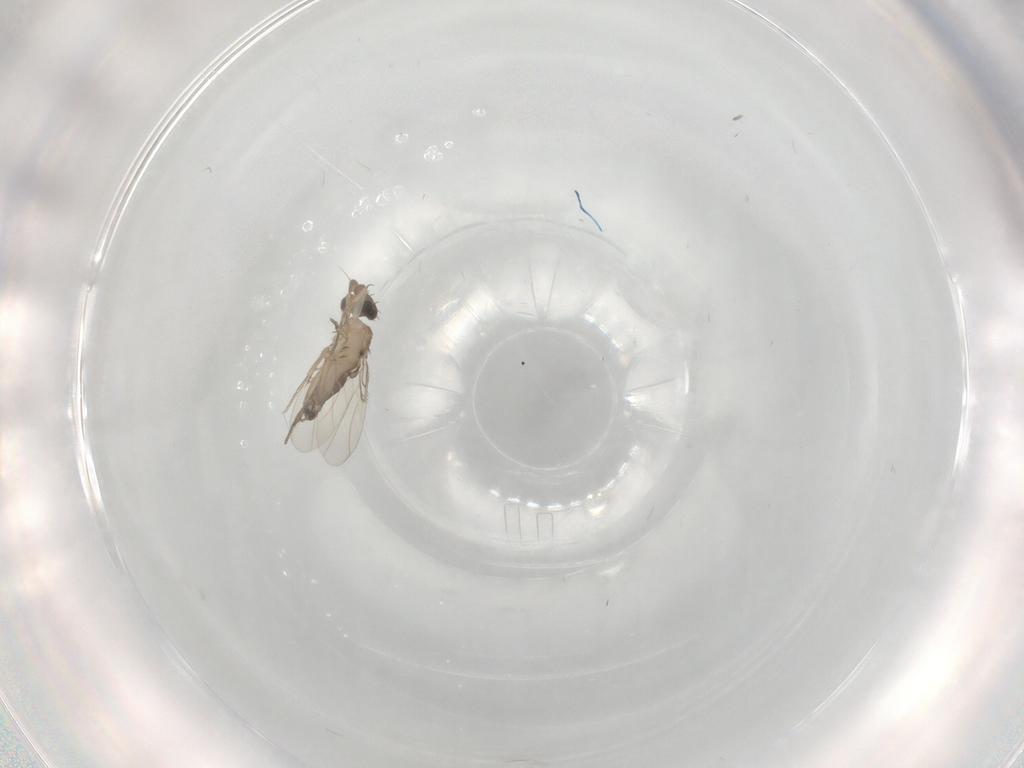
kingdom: Animalia
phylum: Arthropoda
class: Insecta
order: Diptera
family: Phoridae
